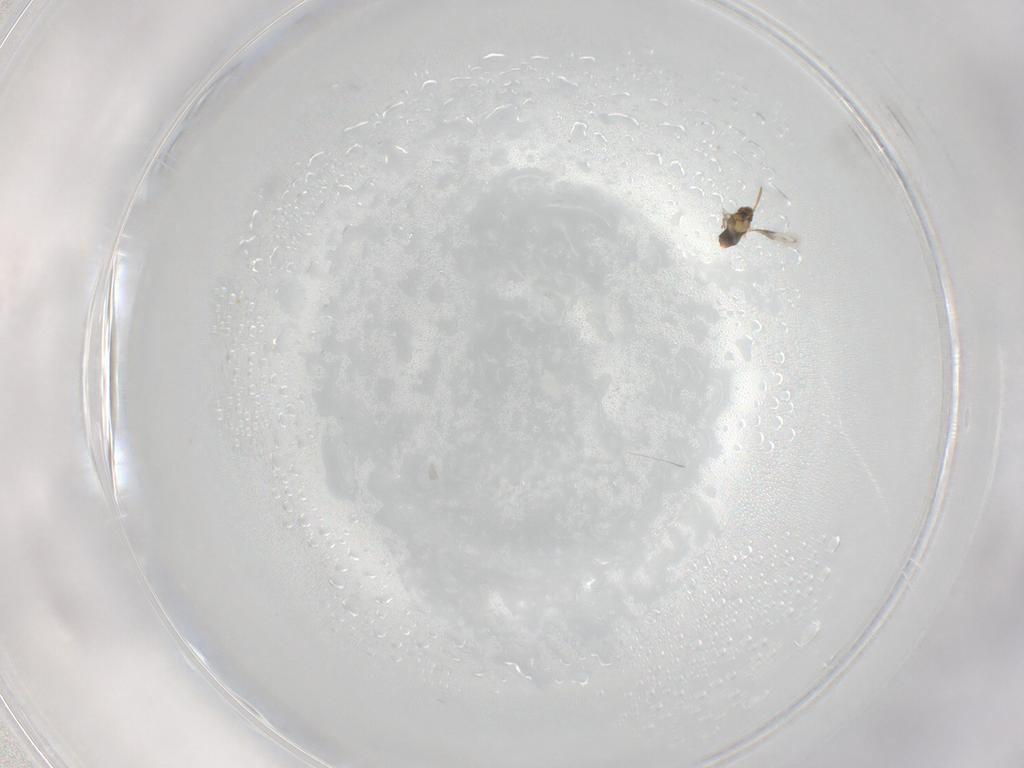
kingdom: Animalia
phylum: Arthropoda
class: Insecta
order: Hymenoptera
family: Aphelinidae
